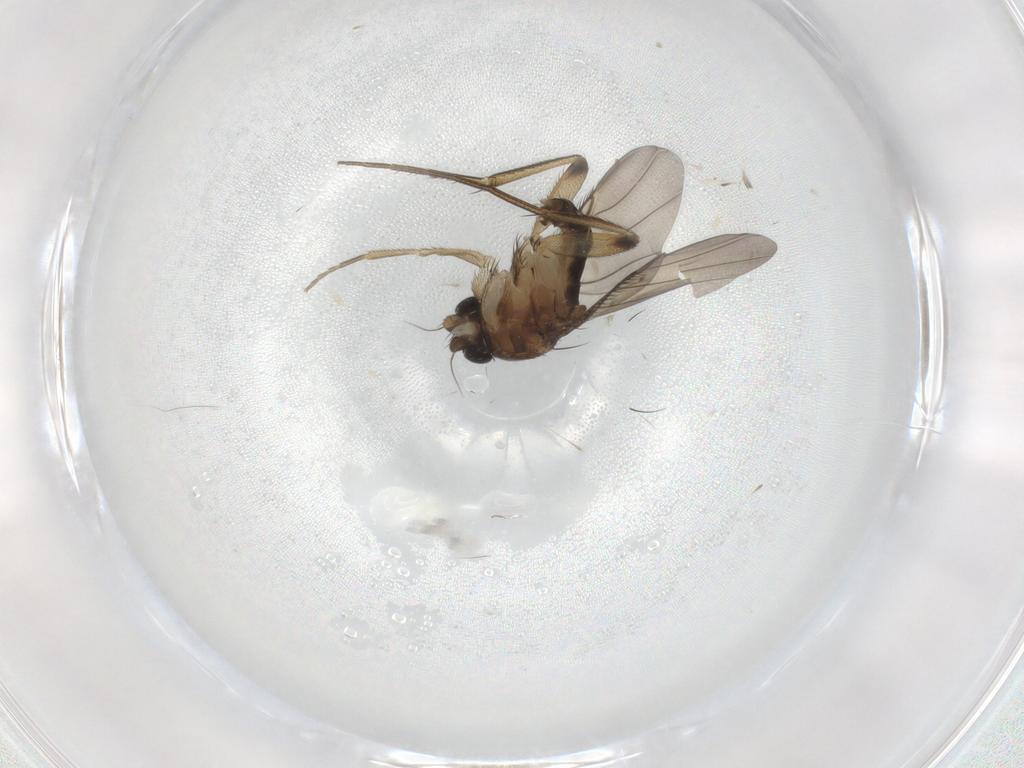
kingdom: Animalia
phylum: Arthropoda
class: Insecta
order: Diptera
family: Phoridae
